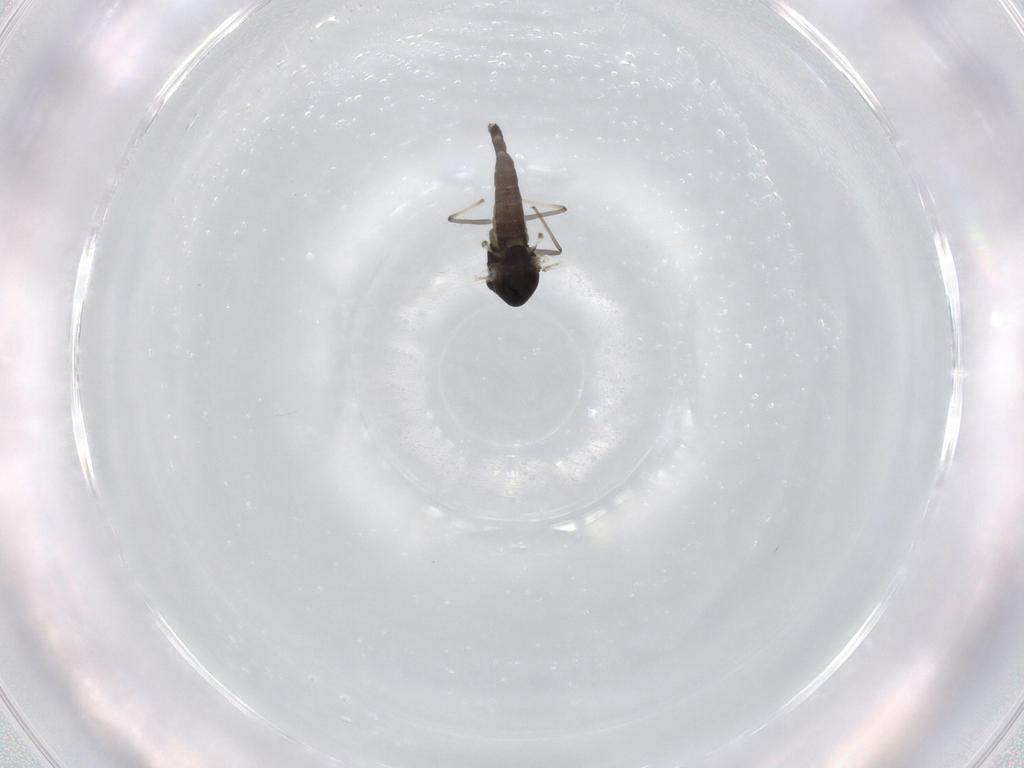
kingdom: Animalia
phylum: Arthropoda
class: Insecta
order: Diptera
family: Chironomidae
